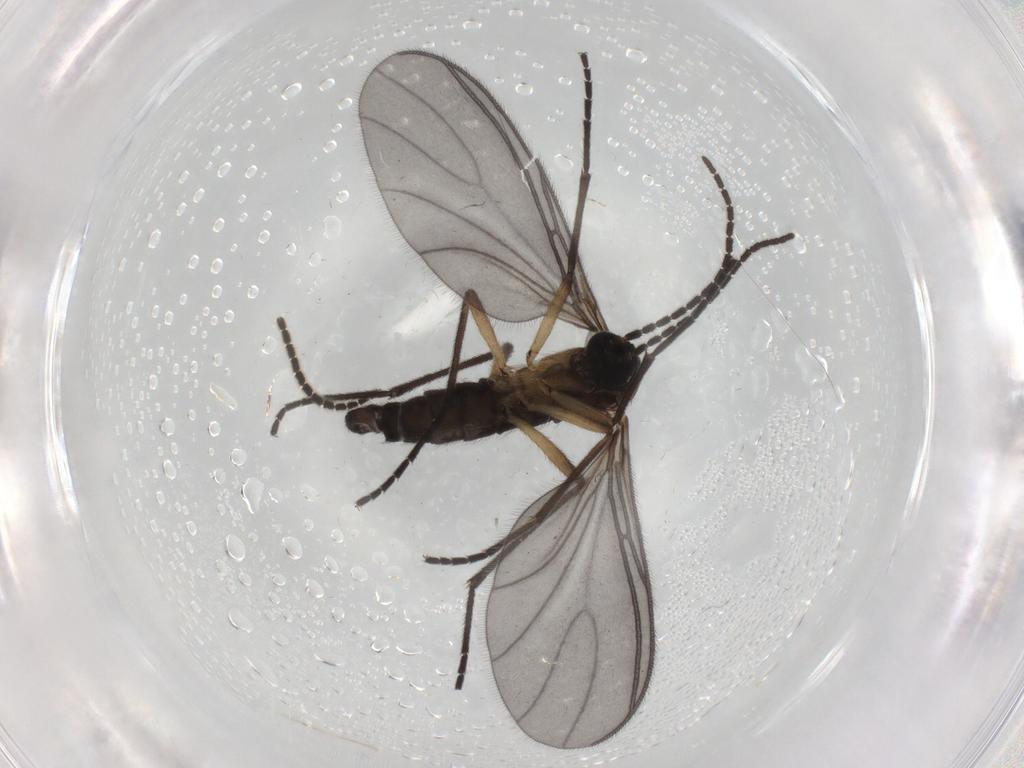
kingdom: Animalia
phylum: Arthropoda
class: Insecta
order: Diptera
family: Sciaridae
